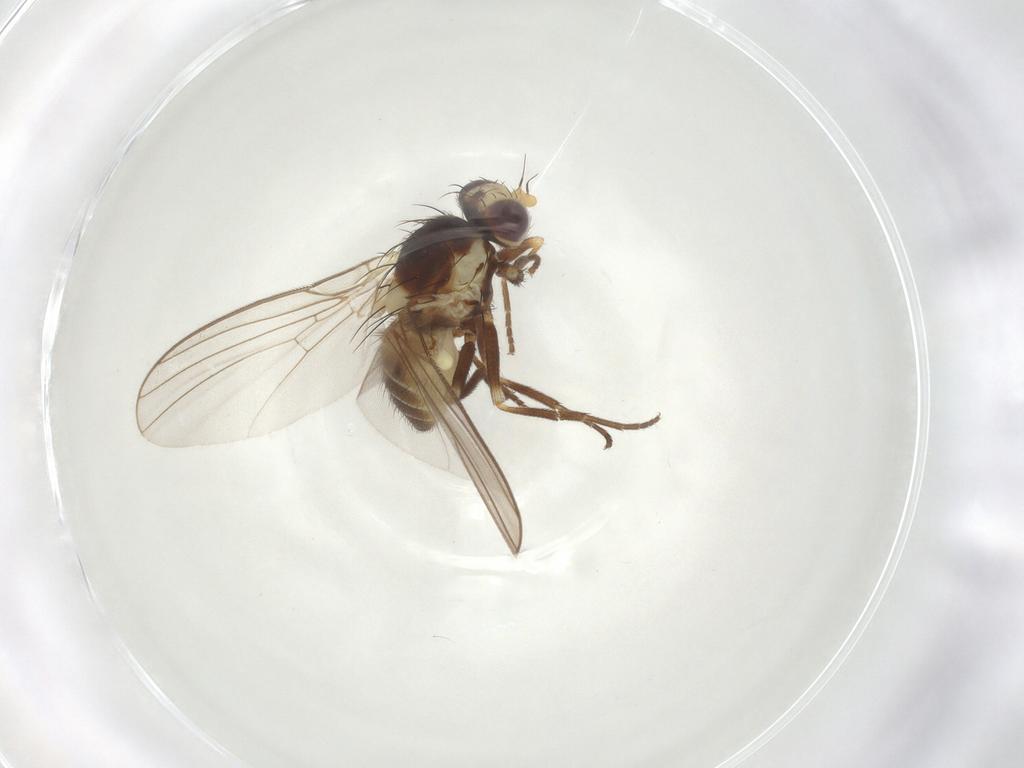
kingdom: Animalia
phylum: Arthropoda
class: Insecta
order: Diptera
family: Agromyzidae
